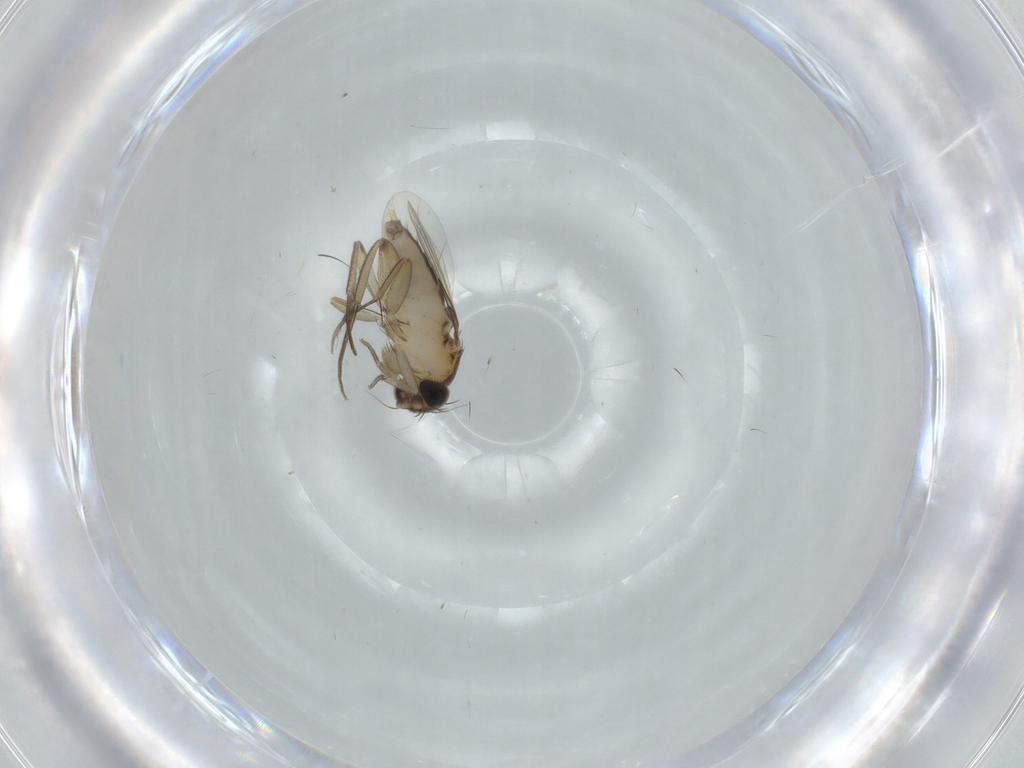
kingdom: Animalia
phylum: Arthropoda
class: Insecta
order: Diptera
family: Phoridae
